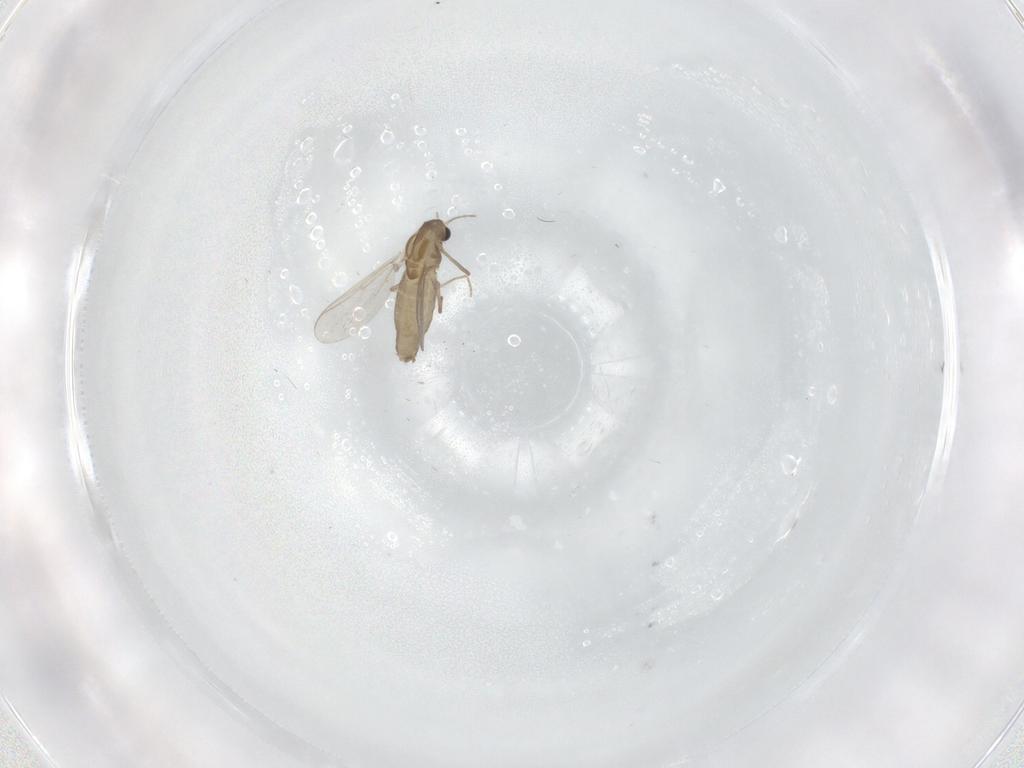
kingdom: Animalia
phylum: Arthropoda
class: Insecta
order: Diptera
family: Chironomidae
